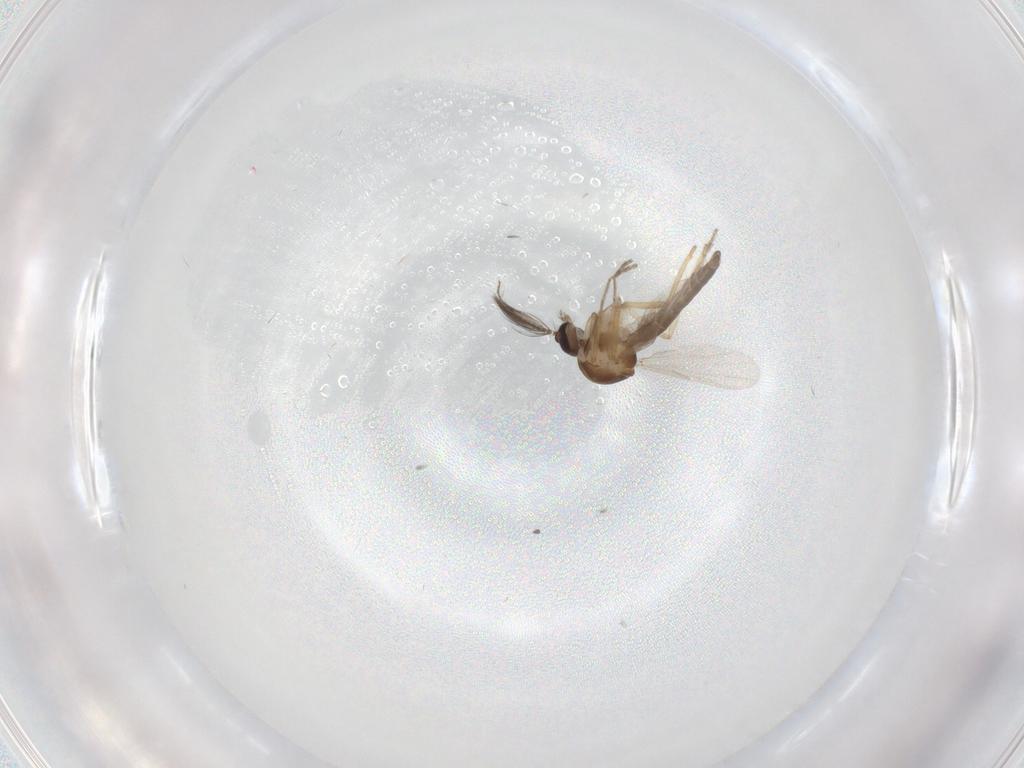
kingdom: Animalia
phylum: Arthropoda
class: Insecta
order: Diptera
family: Ceratopogonidae
